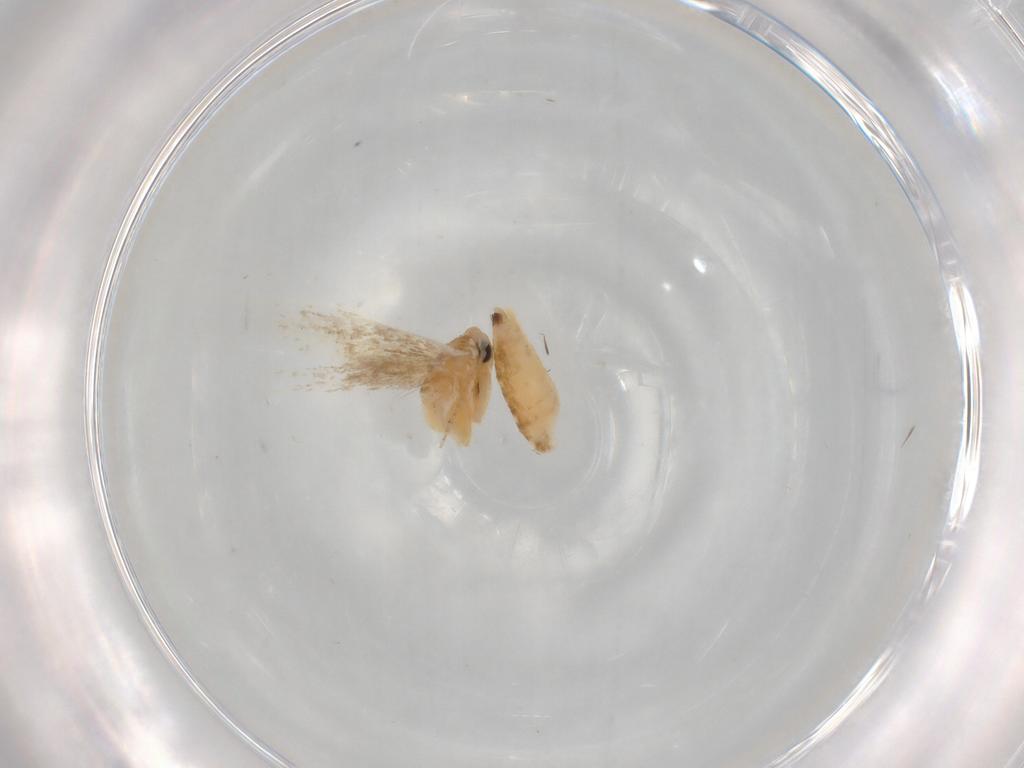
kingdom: Animalia
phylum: Arthropoda
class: Insecta
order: Lepidoptera
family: Bucculatricidae
